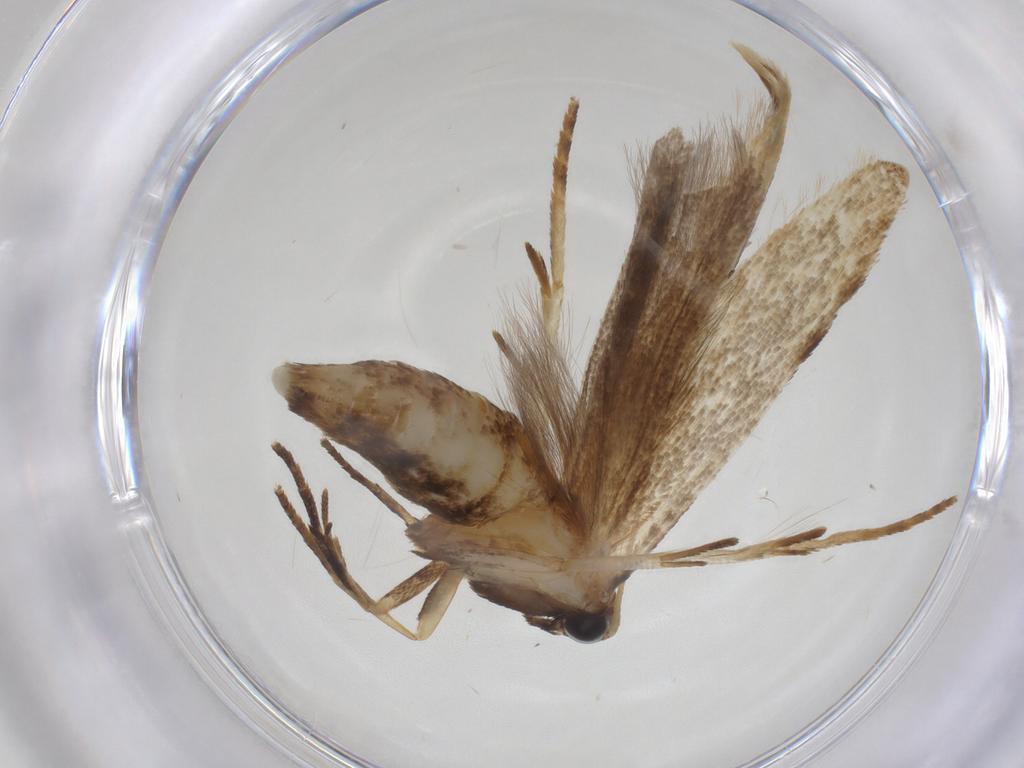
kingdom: Animalia
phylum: Arthropoda
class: Insecta
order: Lepidoptera
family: Gelechiidae
